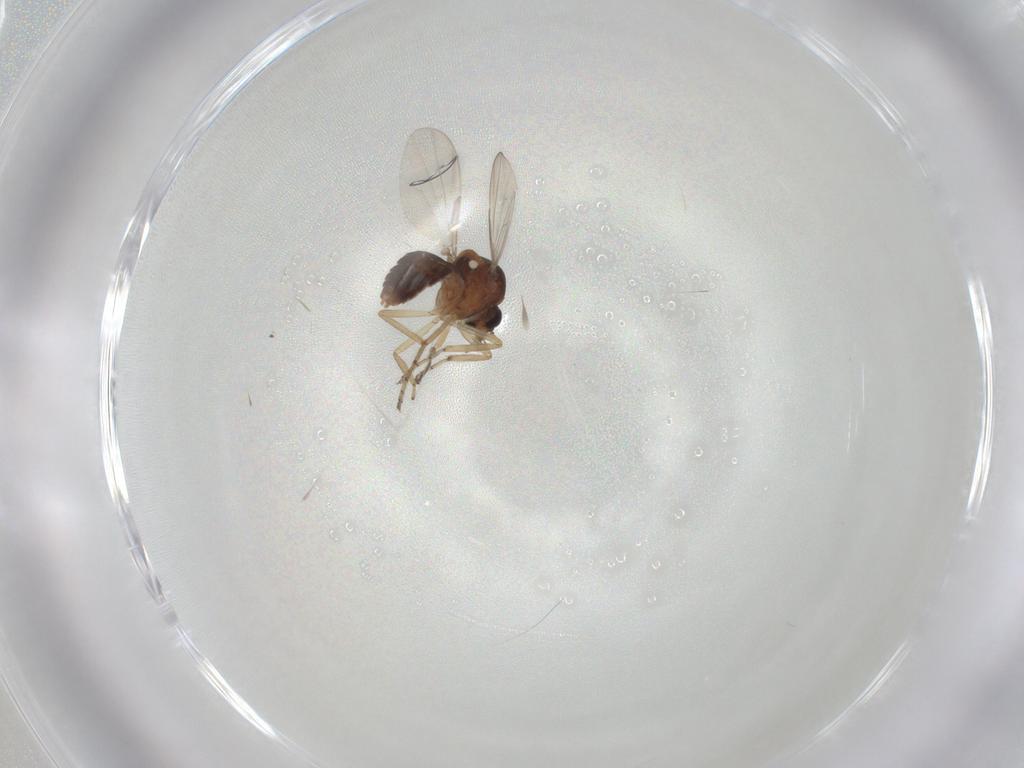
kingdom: Animalia
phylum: Arthropoda
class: Insecta
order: Diptera
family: Ceratopogonidae
